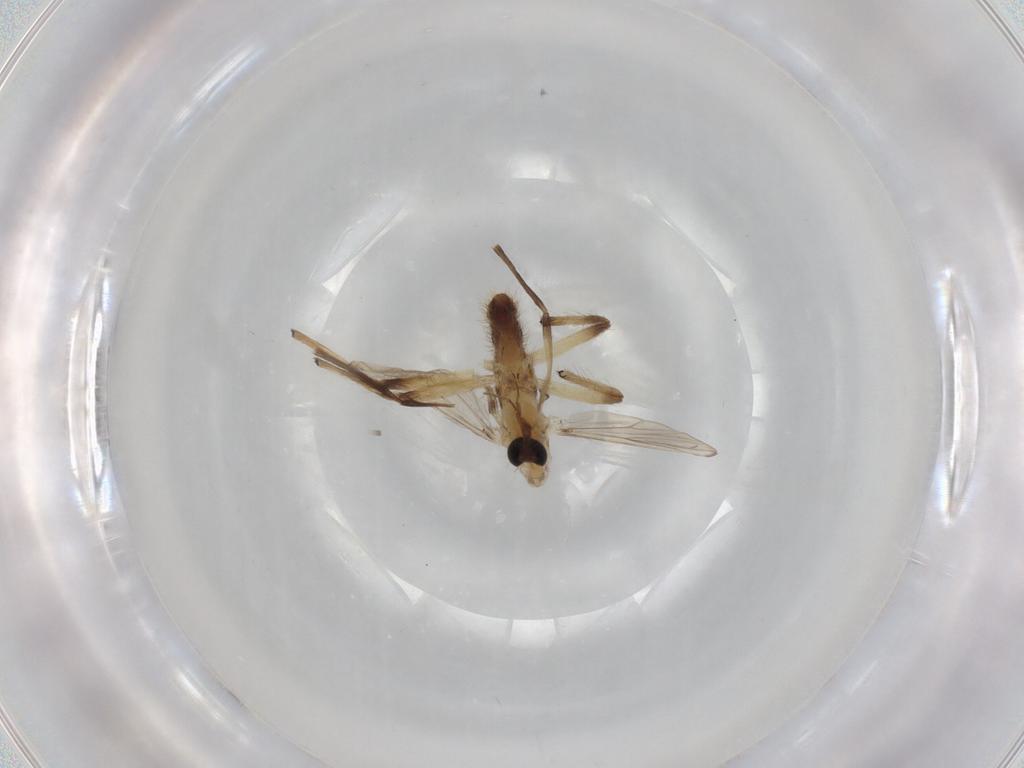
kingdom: Animalia
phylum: Arthropoda
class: Insecta
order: Diptera
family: Chironomidae
